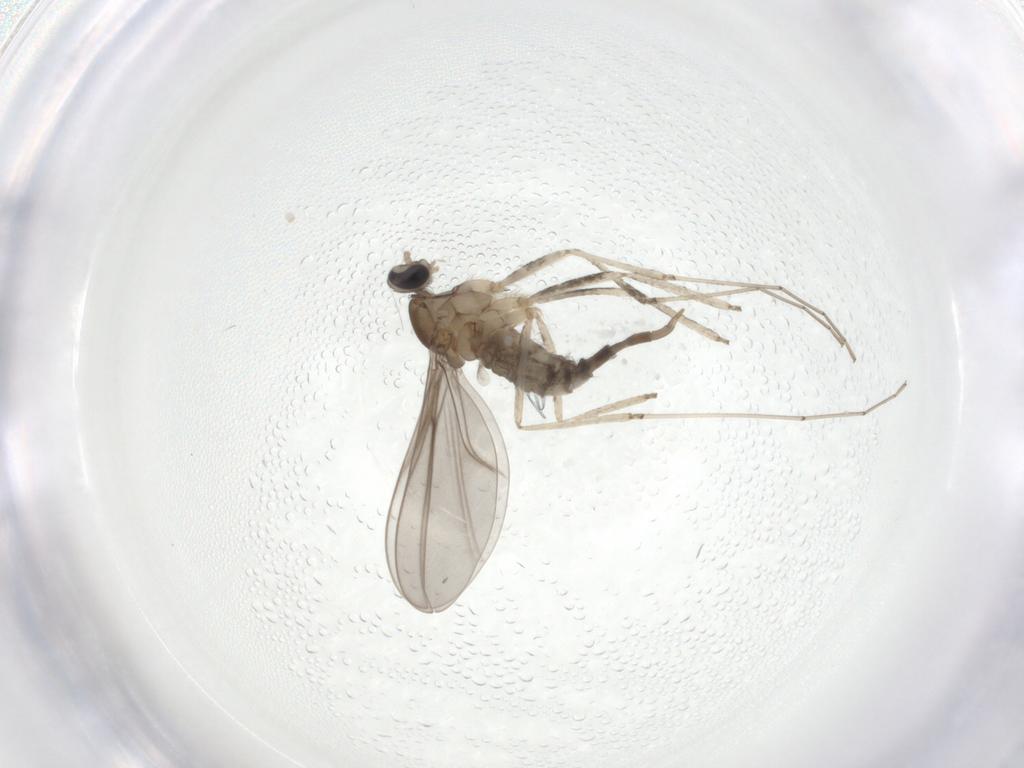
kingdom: Animalia
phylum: Arthropoda
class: Insecta
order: Diptera
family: Cecidomyiidae
